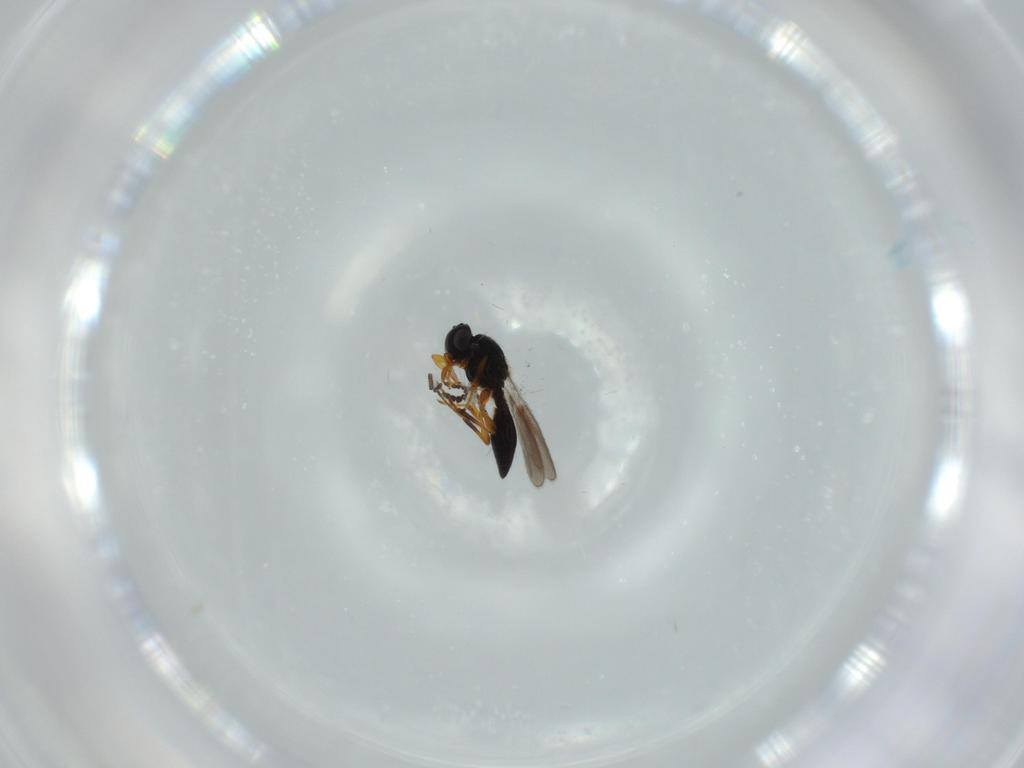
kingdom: Animalia
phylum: Arthropoda
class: Insecta
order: Hymenoptera
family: Platygastridae
